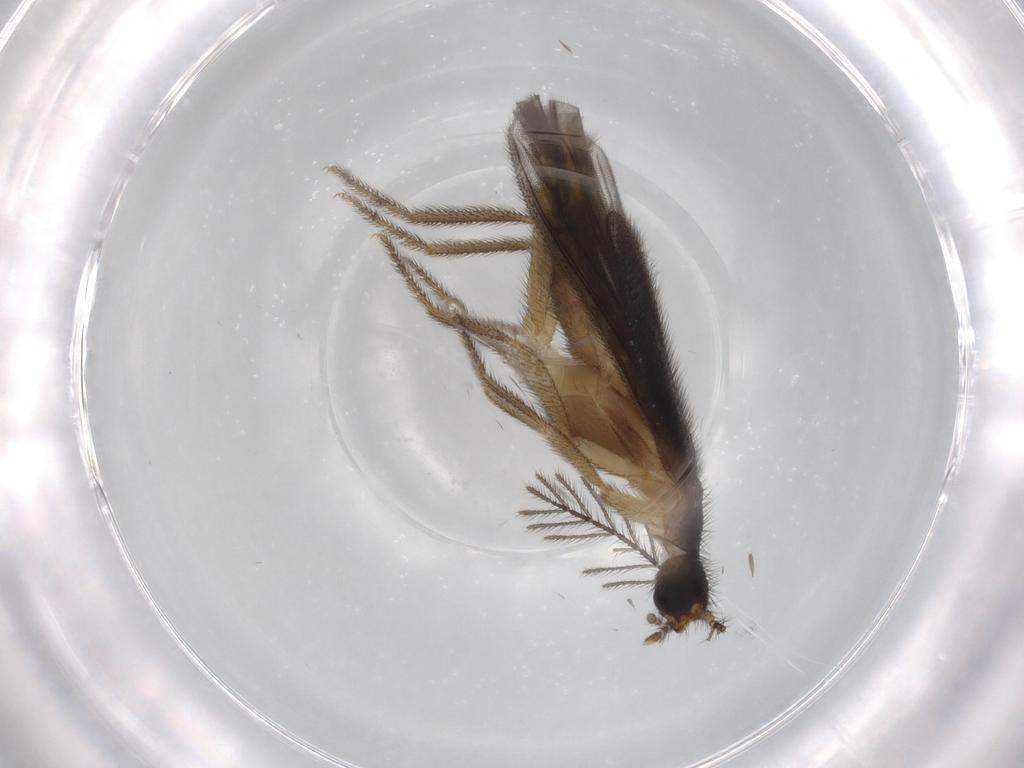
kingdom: Animalia
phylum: Arthropoda
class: Insecta
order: Coleoptera
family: Phengodidae
